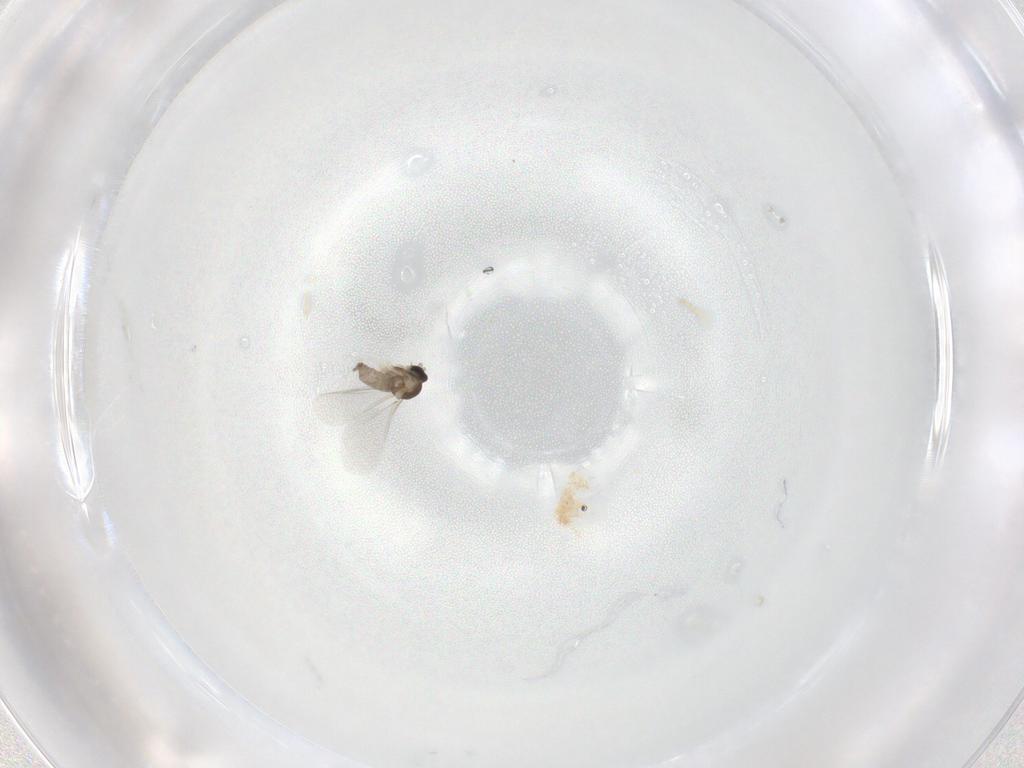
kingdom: Animalia
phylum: Arthropoda
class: Insecta
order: Diptera
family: Cecidomyiidae
